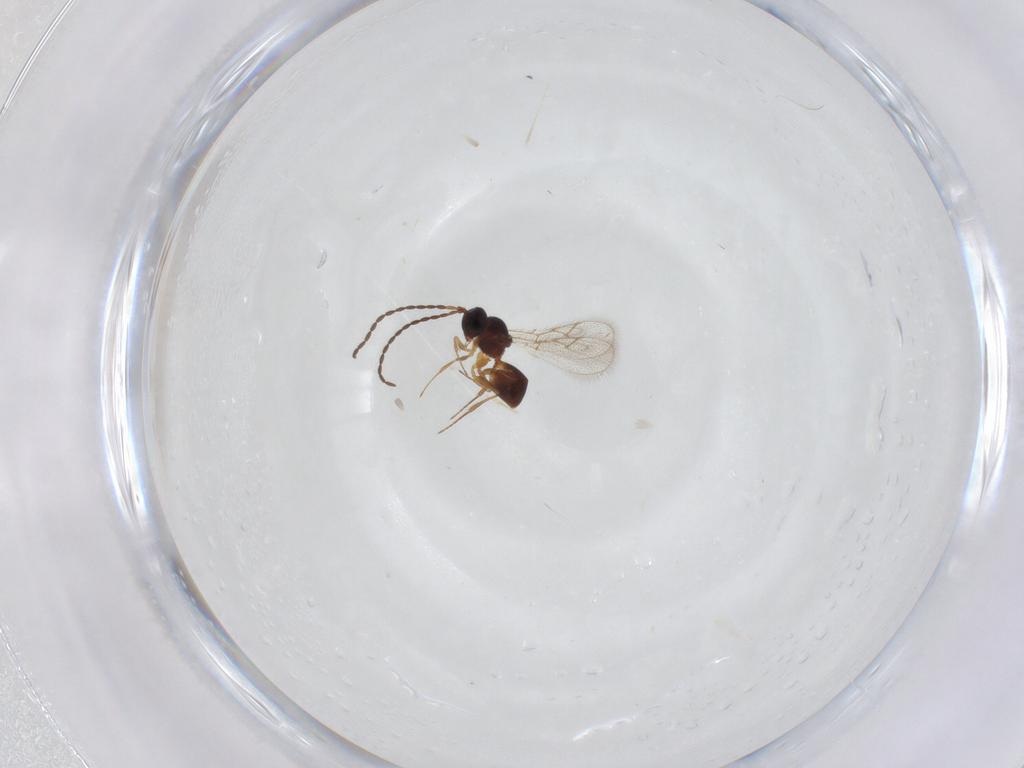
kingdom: Animalia
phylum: Arthropoda
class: Insecta
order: Hymenoptera
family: Figitidae
